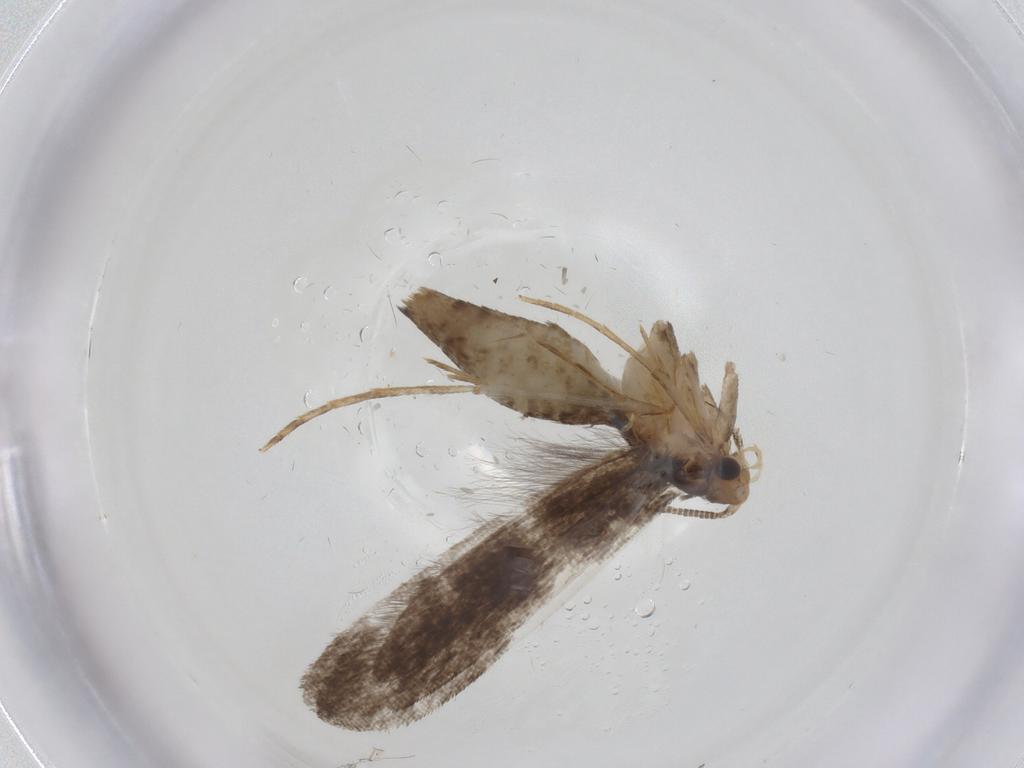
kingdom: Animalia
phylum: Arthropoda
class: Insecta
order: Lepidoptera
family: Tineidae
